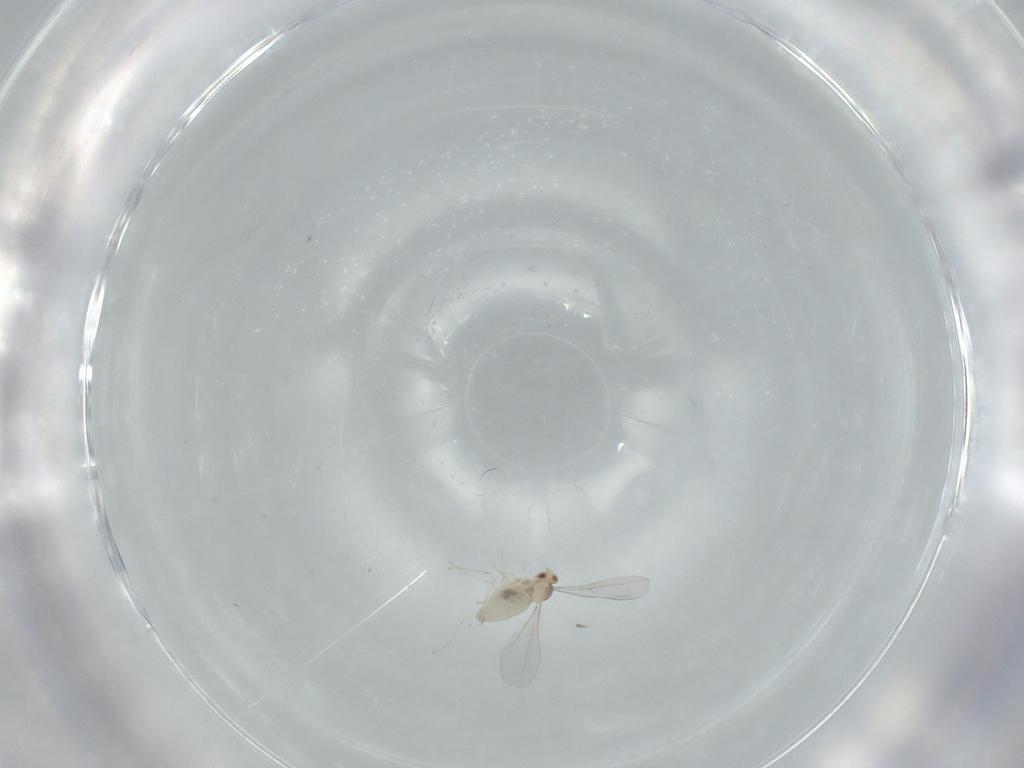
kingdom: Animalia
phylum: Arthropoda
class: Insecta
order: Diptera
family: Cecidomyiidae
